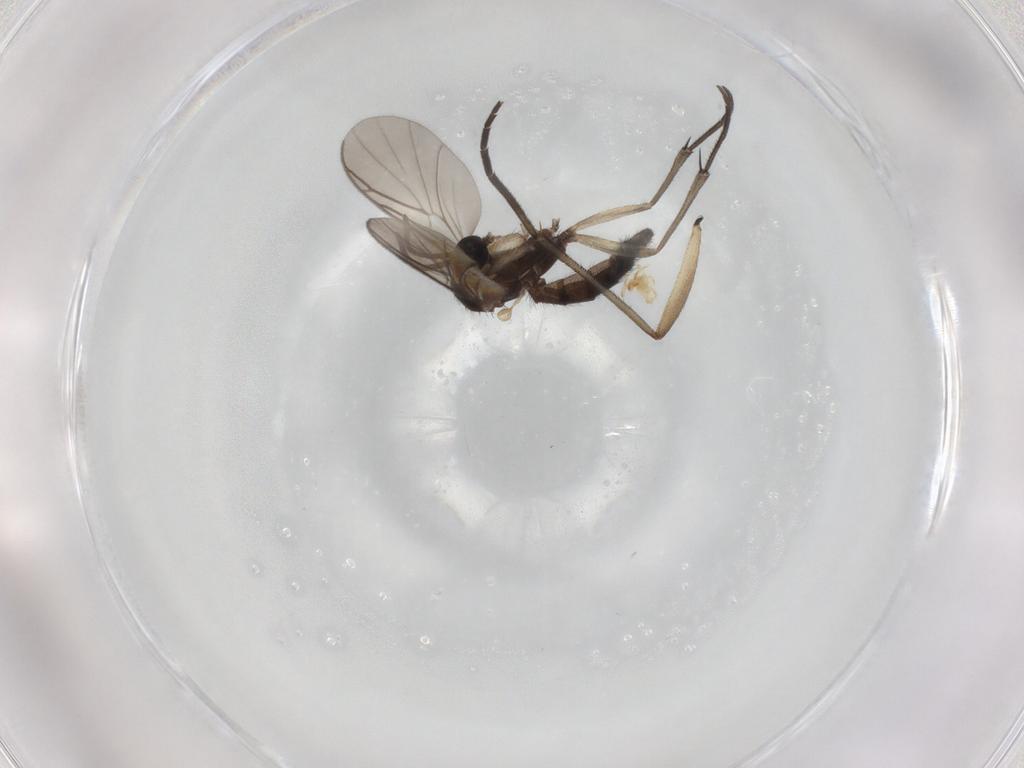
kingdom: Animalia
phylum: Arthropoda
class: Insecta
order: Diptera
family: Keroplatidae
